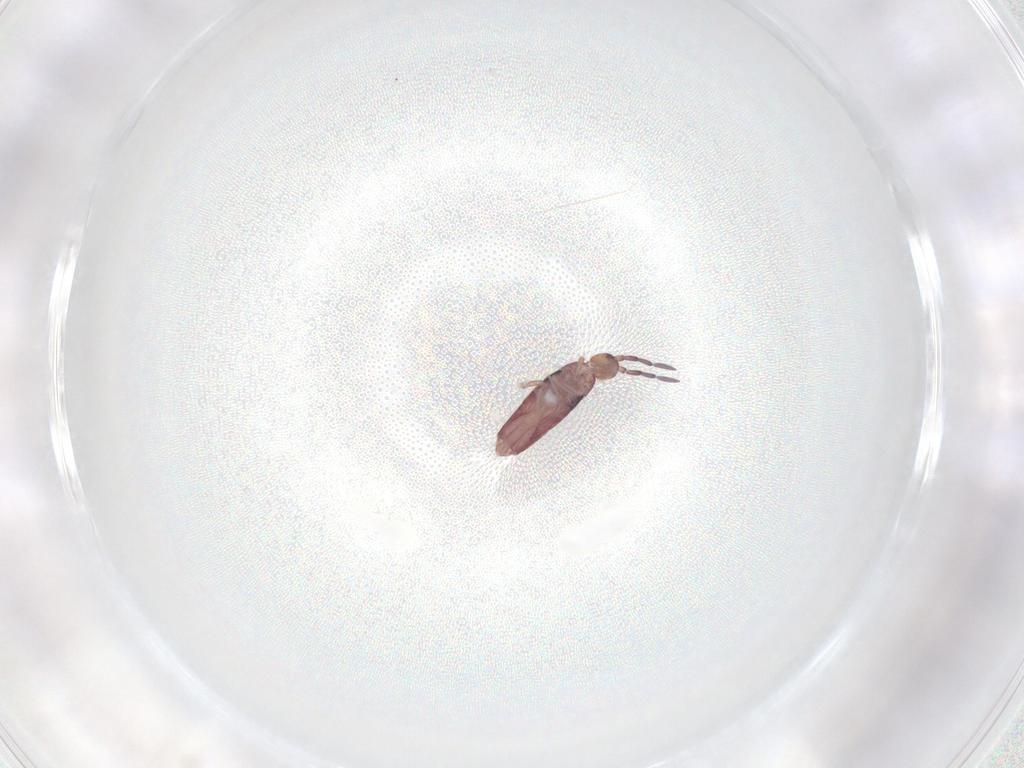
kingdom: Animalia
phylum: Arthropoda
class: Collembola
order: Entomobryomorpha
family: Entomobryidae
